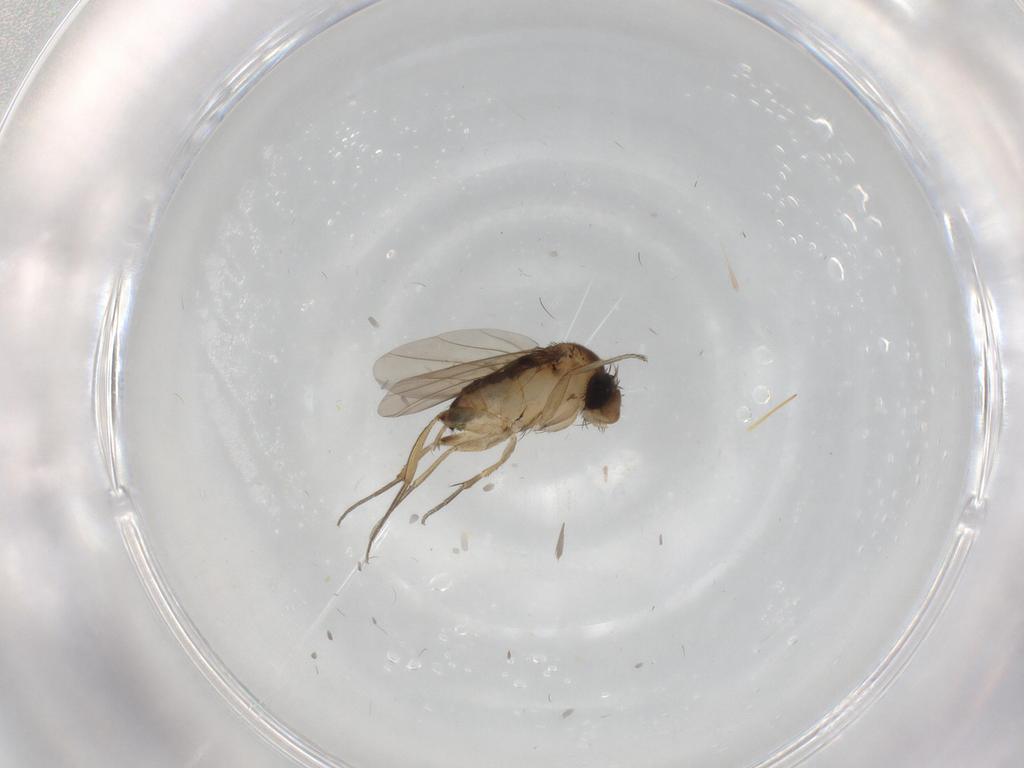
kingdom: Animalia
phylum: Arthropoda
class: Insecta
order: Diptera
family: Phoridae
